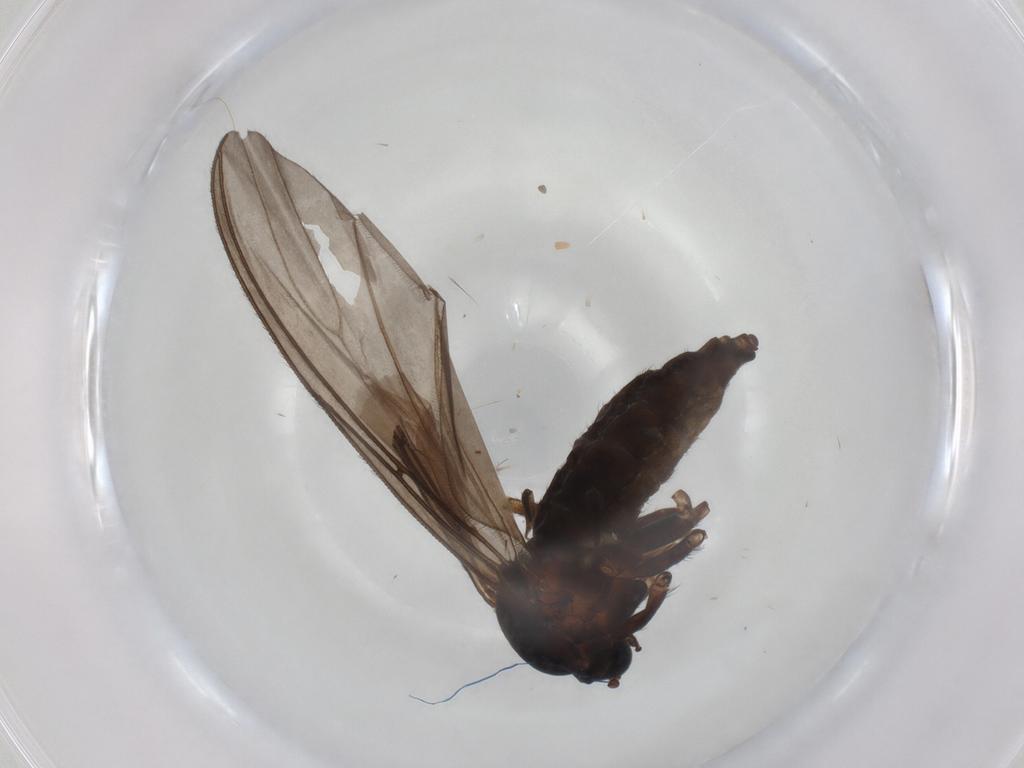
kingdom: Animalia
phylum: Arthropoda
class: Insecta
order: Diptera
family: Sciaridae
